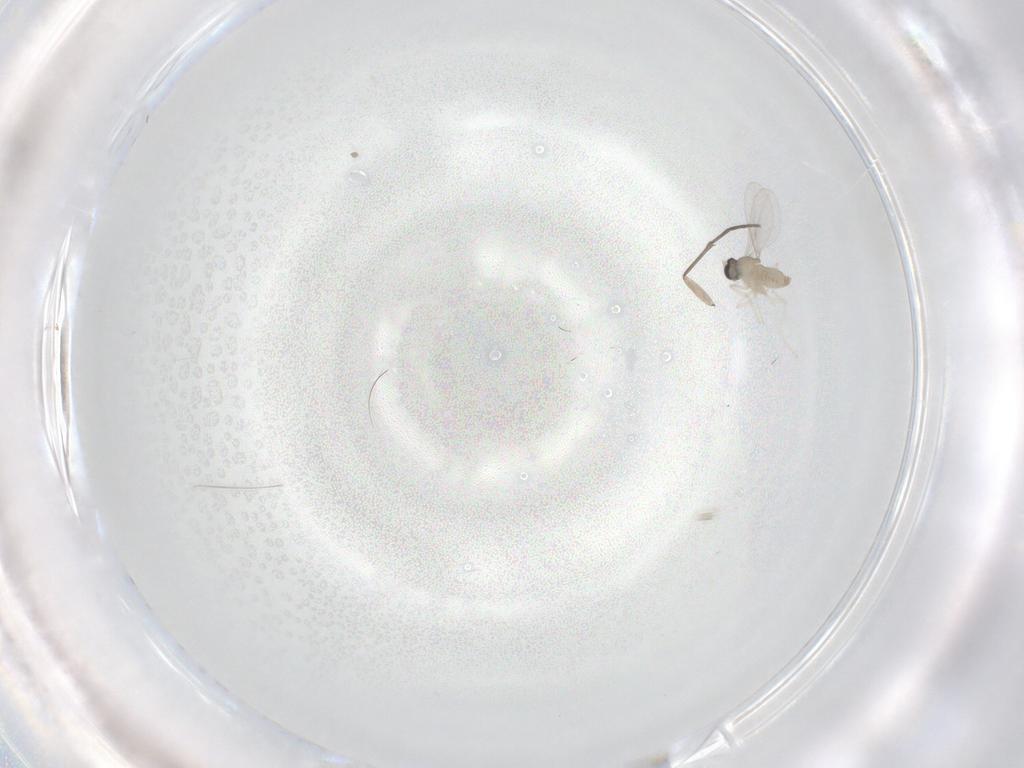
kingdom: Animalia
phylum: Arthropoda
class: Insecta
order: Diptera
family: Cecidomyiidae
